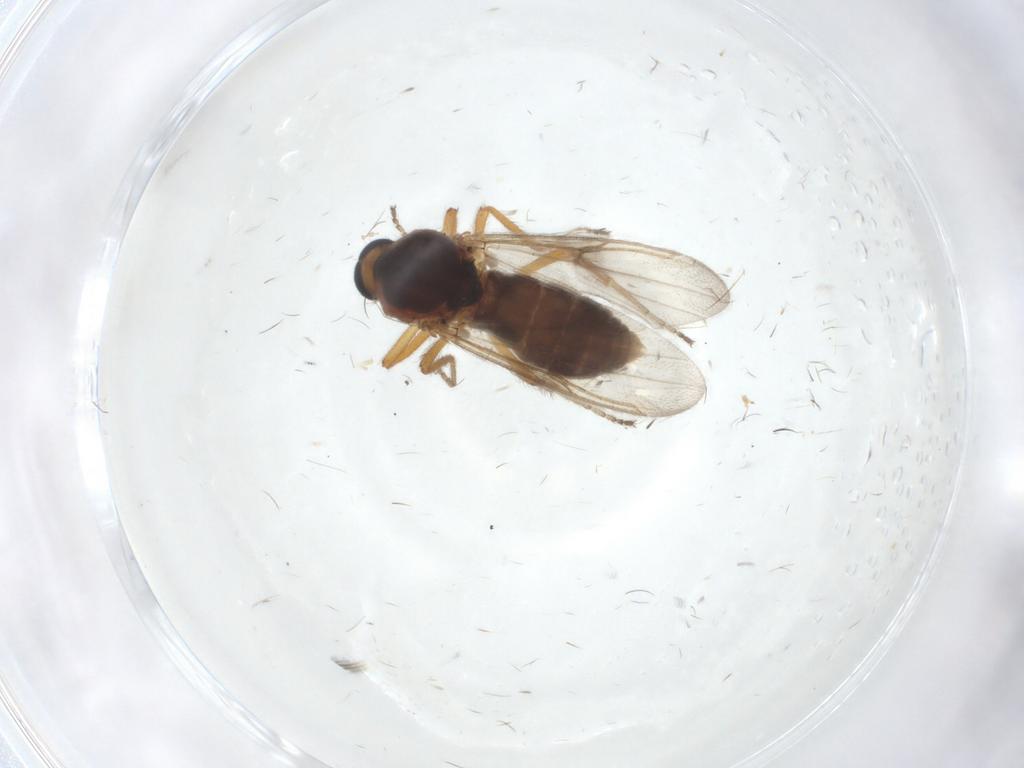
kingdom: Animalia
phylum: Arthropoda
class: Insecta
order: Diptera
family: Ceratopogonidae
